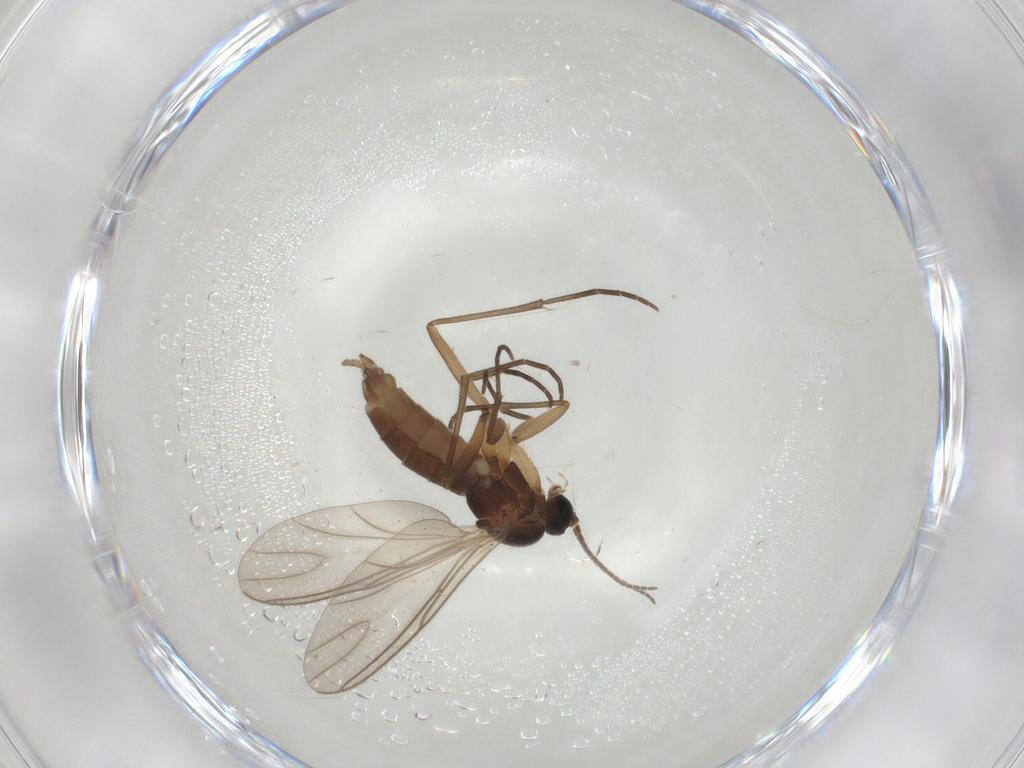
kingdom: Animalia
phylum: Arthropoda
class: Insecta
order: Diptera
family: Sciaridae
